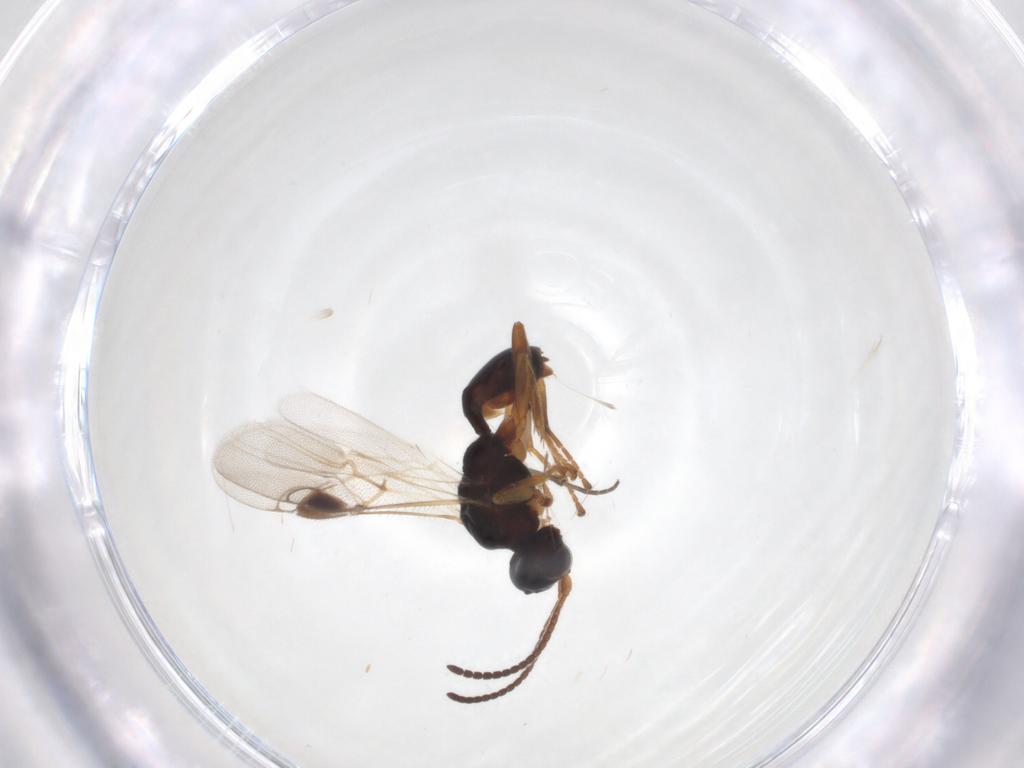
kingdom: Animalia
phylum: Arthropoda
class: Insecta
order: Hymenoptera
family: Braconidae
